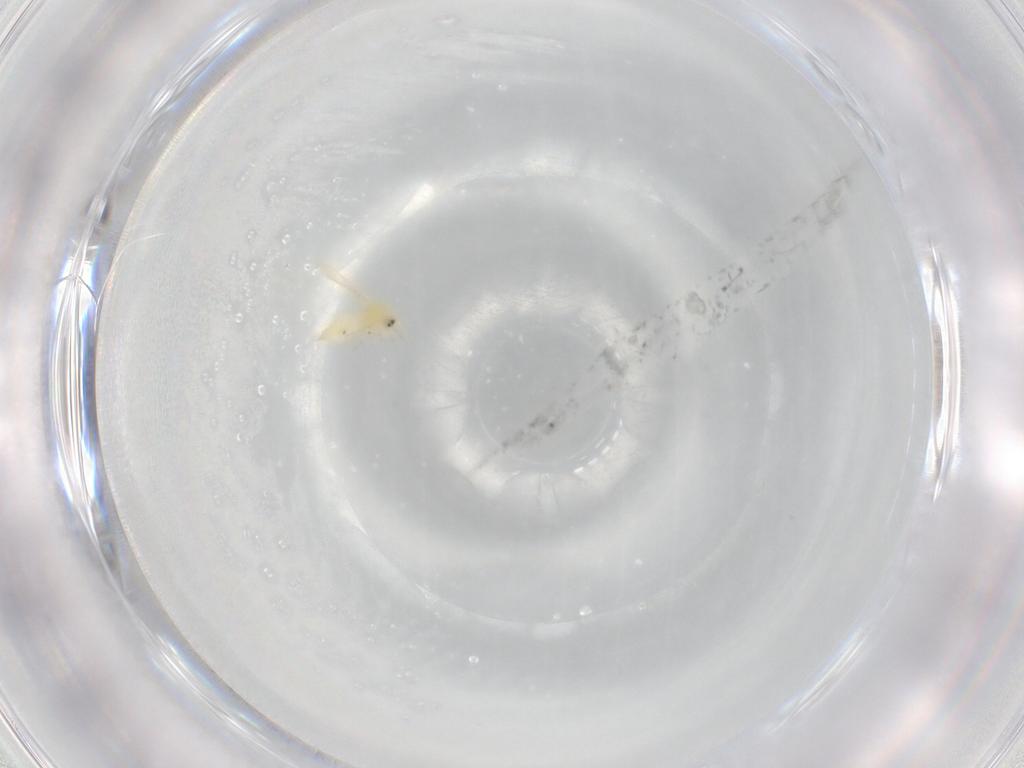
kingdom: Animalia
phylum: Arthropoda
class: Insecta
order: Hemiptera
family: Aleyrodidae
